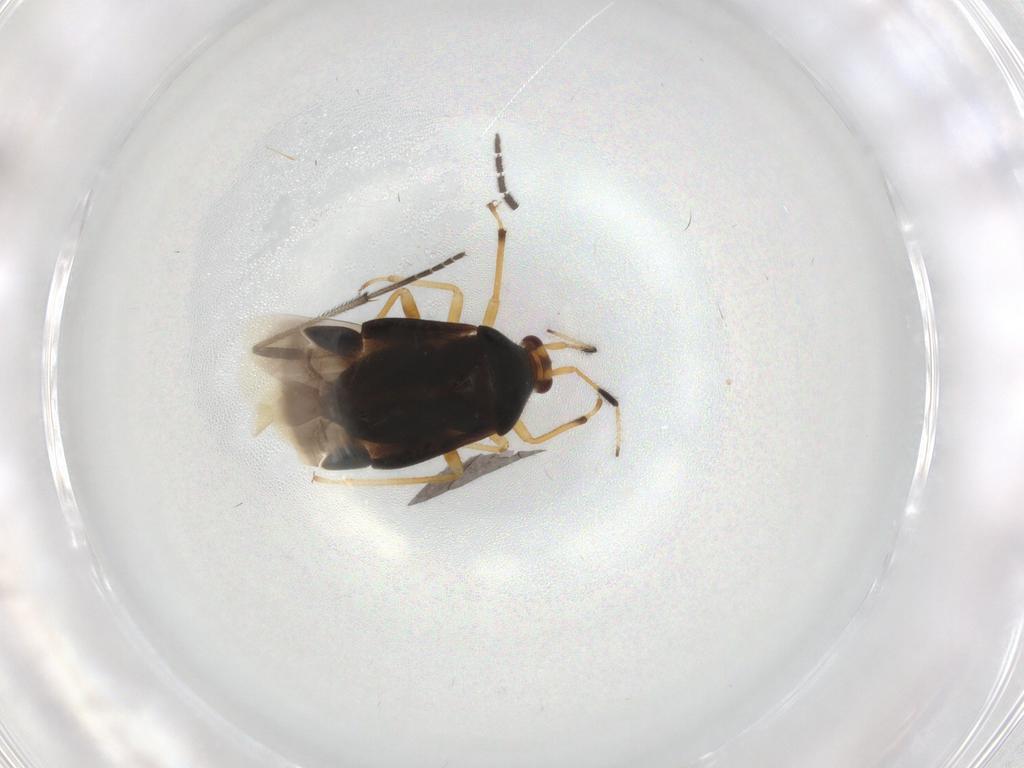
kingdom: Animalia
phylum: Arthropoda
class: Insecta
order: Hemiptera
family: Miridae
